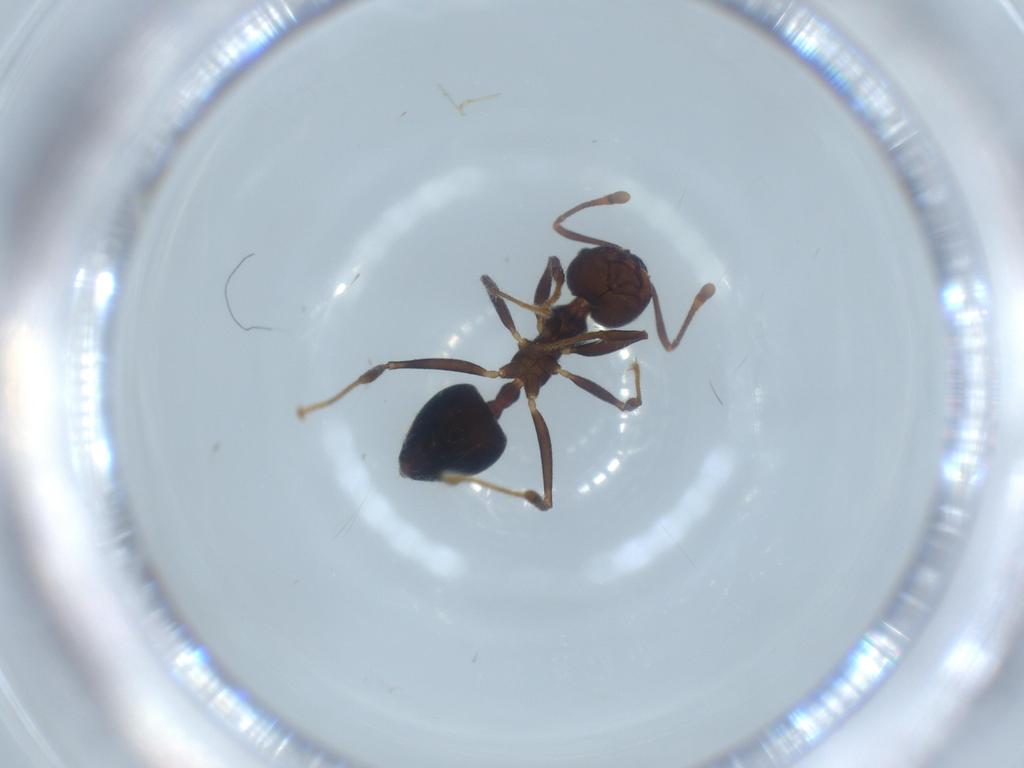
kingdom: Animalia
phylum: Arthropoda
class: Insecta
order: Hymenoptera
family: Formicidae
